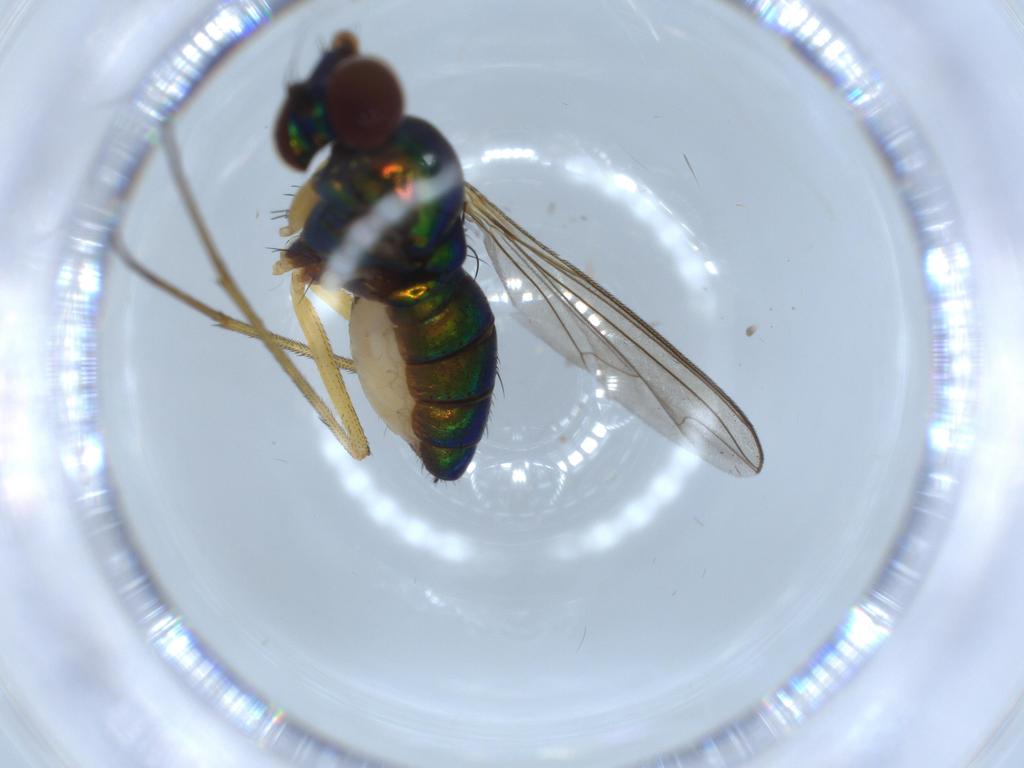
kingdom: Animalia
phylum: Arthropoda
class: Insecta
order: Diptera
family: Dolichopodidae
